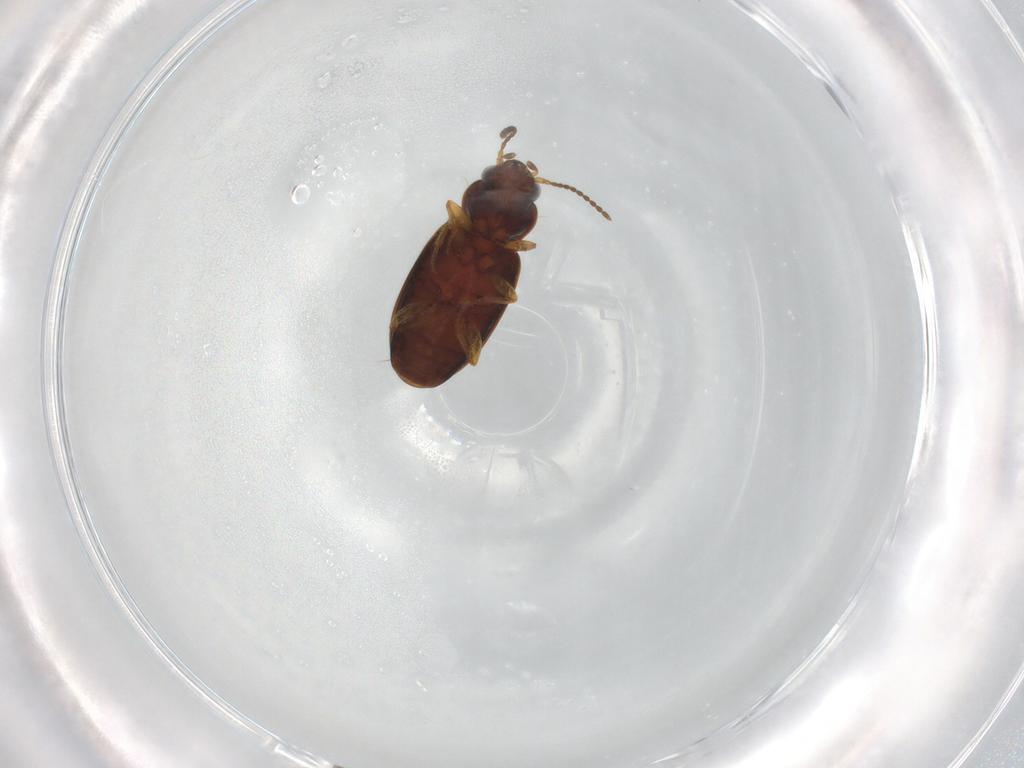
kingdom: Animalia
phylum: Arthropoda
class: Insecta
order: Coleoptera
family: Carabidae
